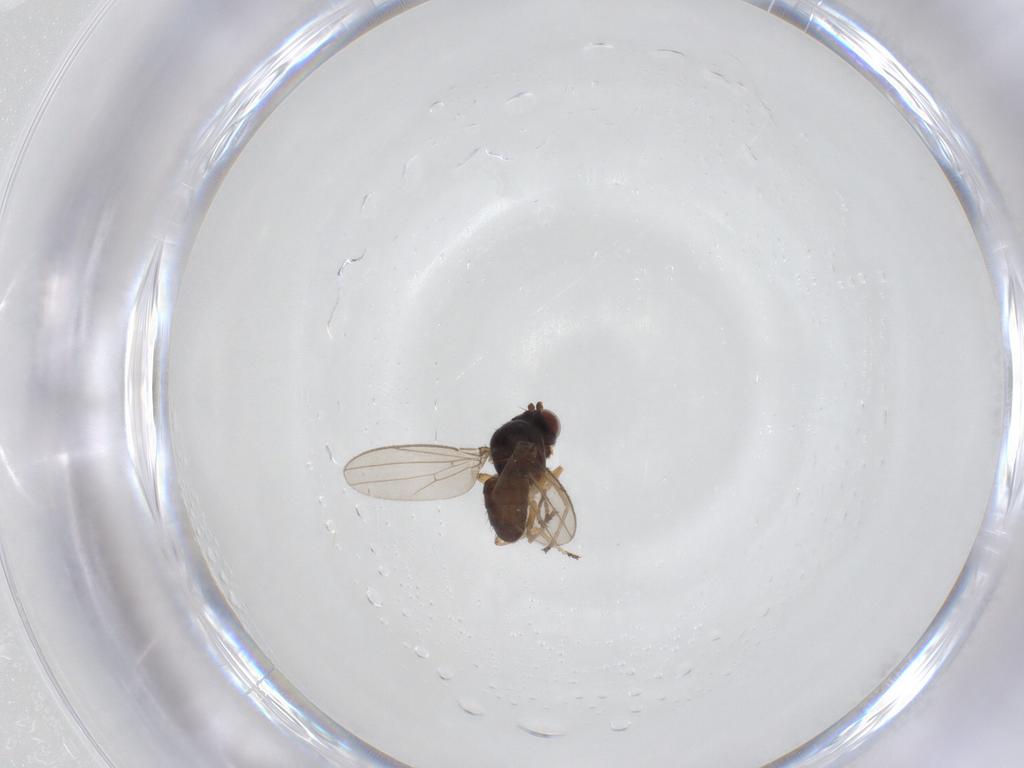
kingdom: Animalia
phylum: Arthropoda
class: Insecta
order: Diptera
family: Ephydridae
